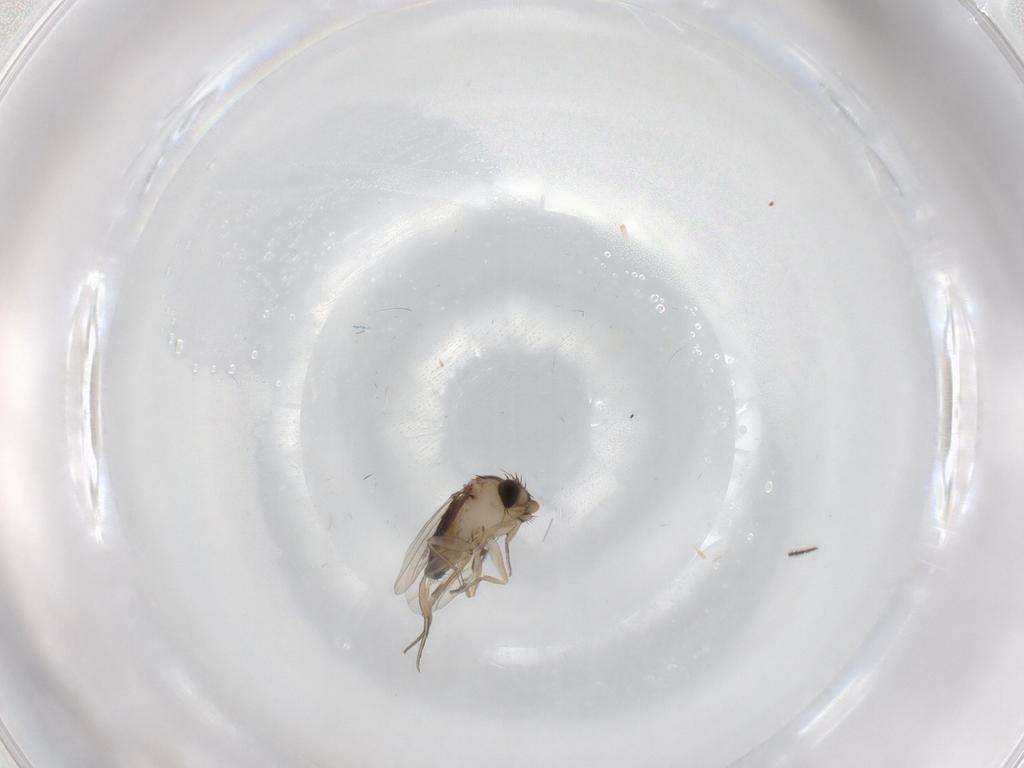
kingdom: Animalia
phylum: Arthropoda
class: Insecta
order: Diptera
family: Phoridae
